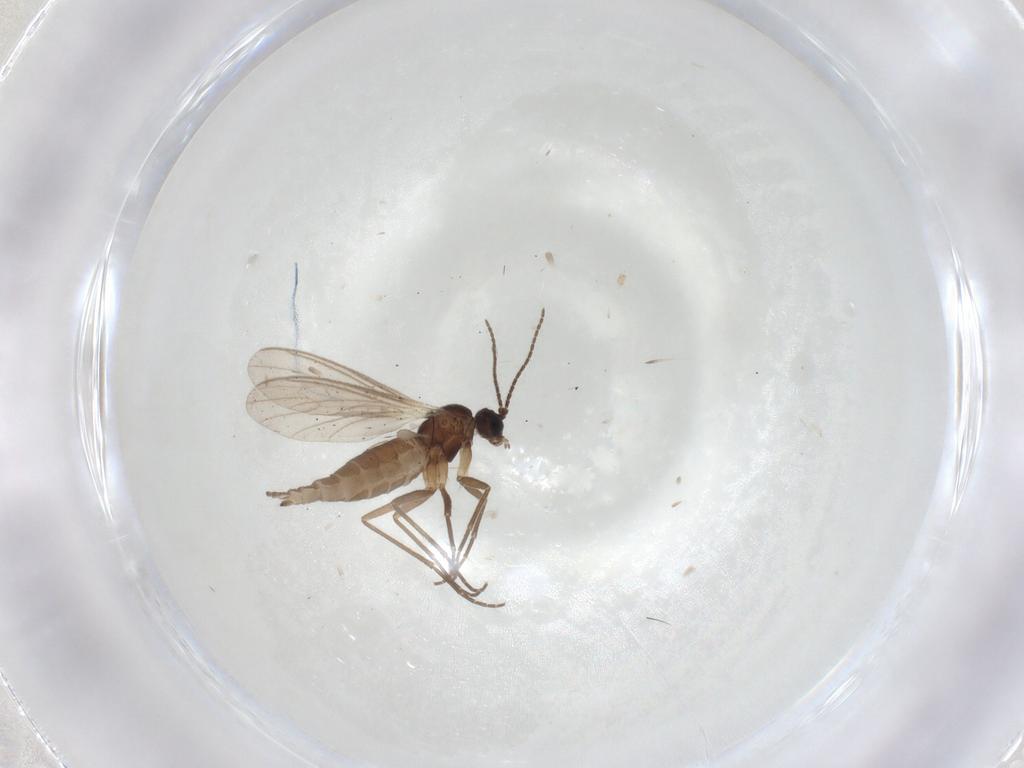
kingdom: Animalia
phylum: Arthropoda
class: Insecta
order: Diptera
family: Sciaridae
